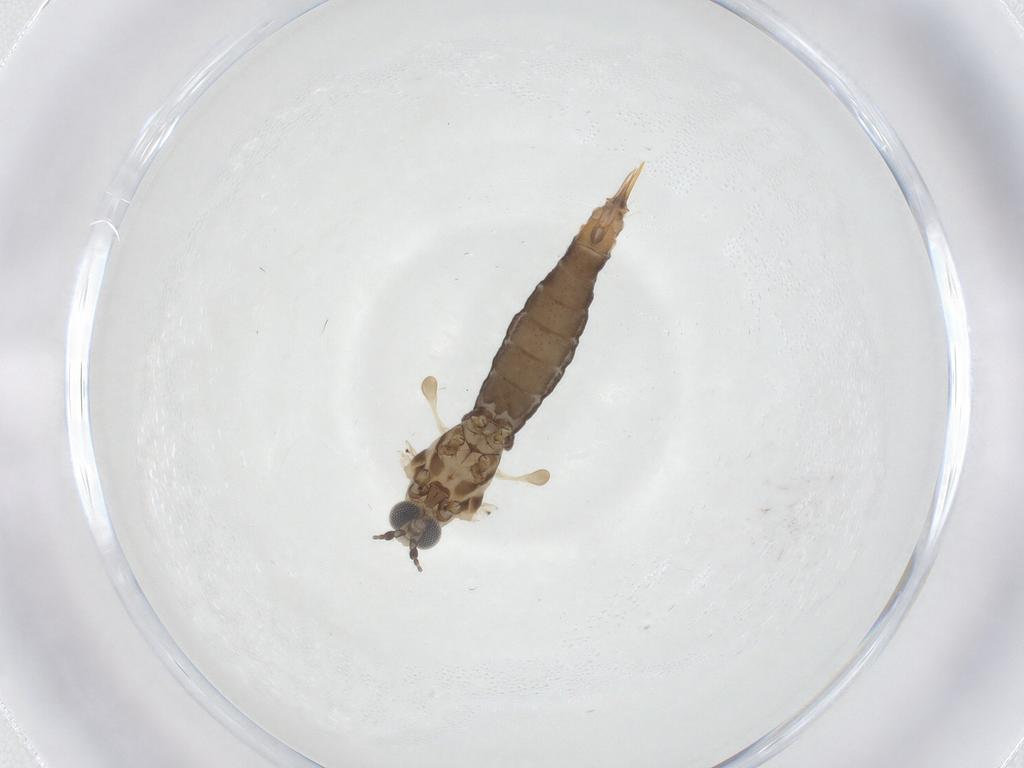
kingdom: Animalia
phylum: Arthropoda
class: Insecta
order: Diptera
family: Limoniidae
